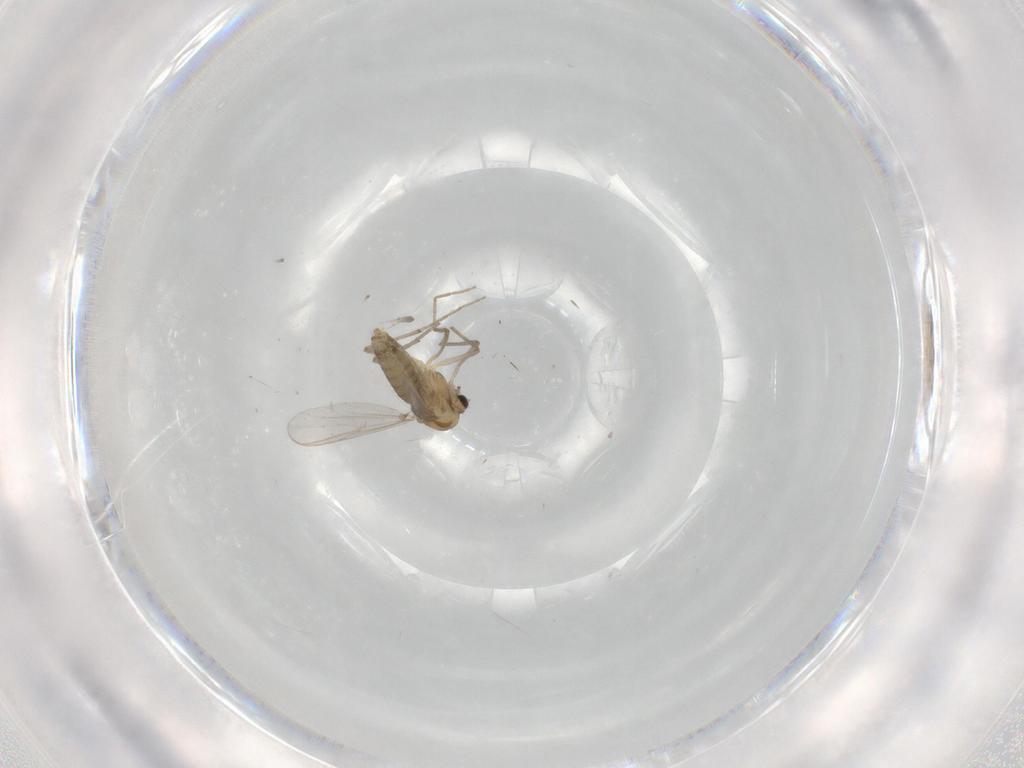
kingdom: Animalia
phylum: Arthropoda
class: Insecta
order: Diptera
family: Chironomidae
